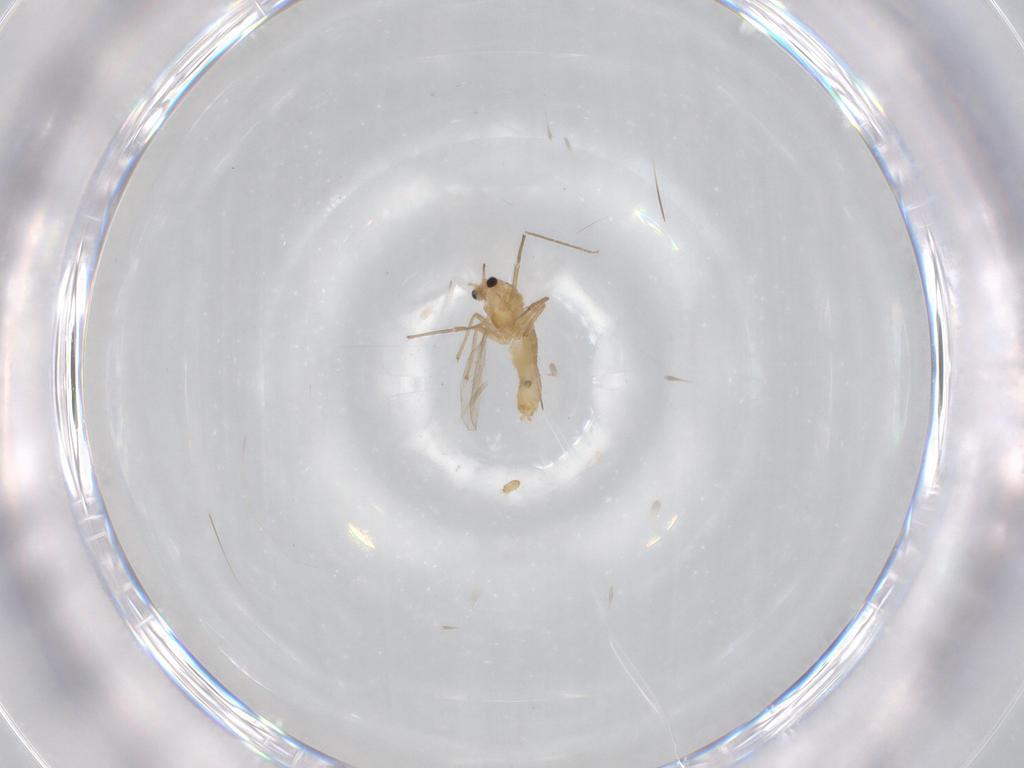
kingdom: Animalia
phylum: Arthropoda
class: Insecta
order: Diptera
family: Chironomidae
